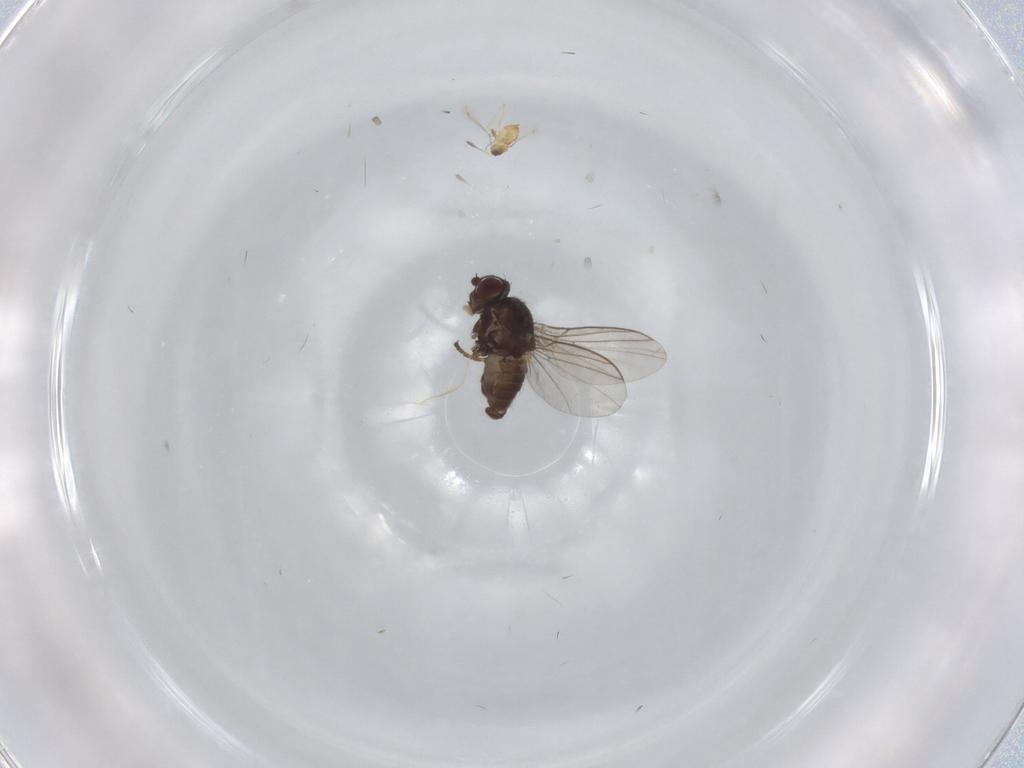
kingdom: Animalia
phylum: Arthropoda
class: Insecta
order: Diptera
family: Agromyzidae
